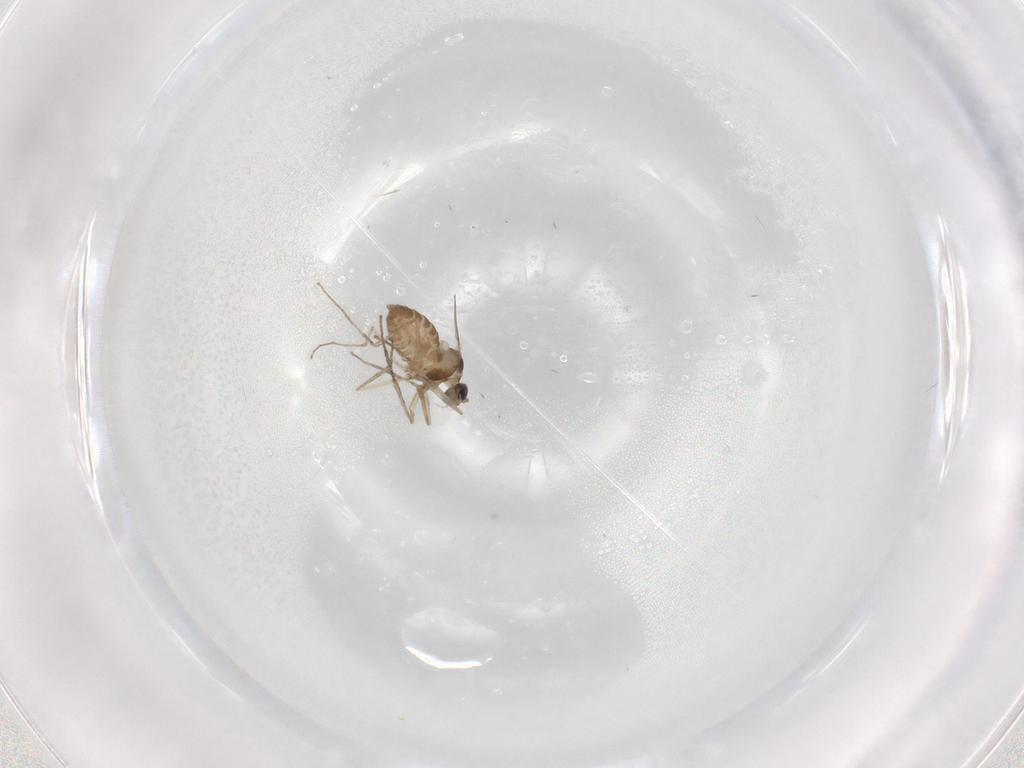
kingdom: Animalia
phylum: Arthropoda
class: Insecta
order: Diptera
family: Cecidomyiidae
